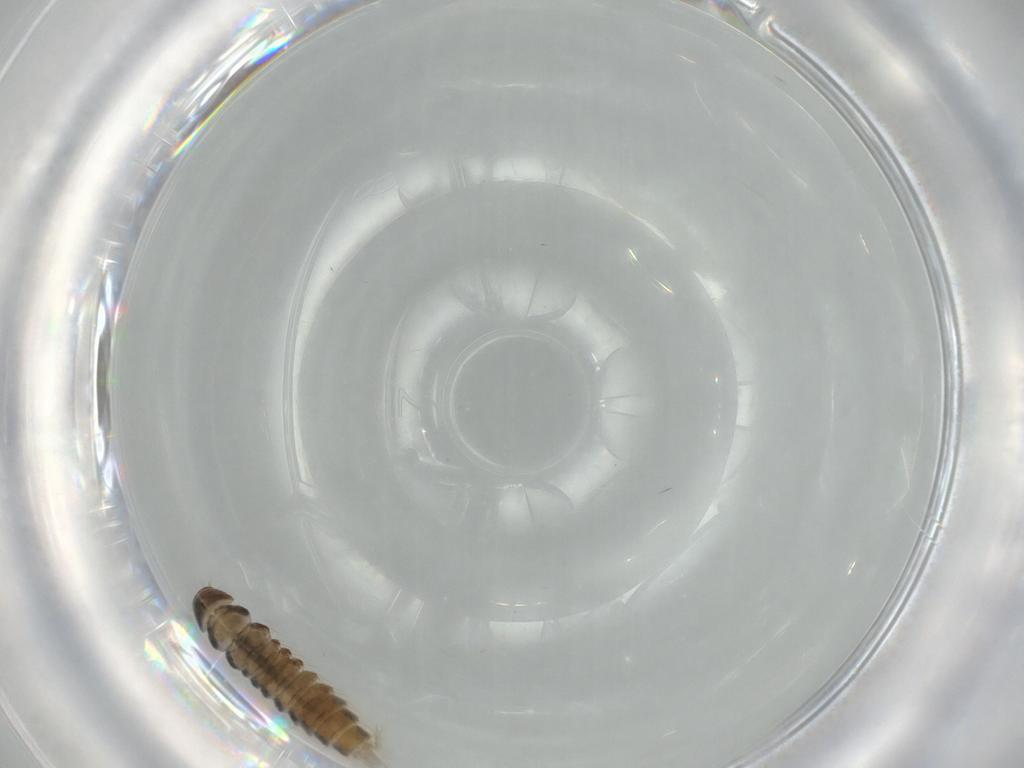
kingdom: Animalia
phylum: Arthropoda
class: Insecta
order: Coleoptera
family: Staphylinidae
